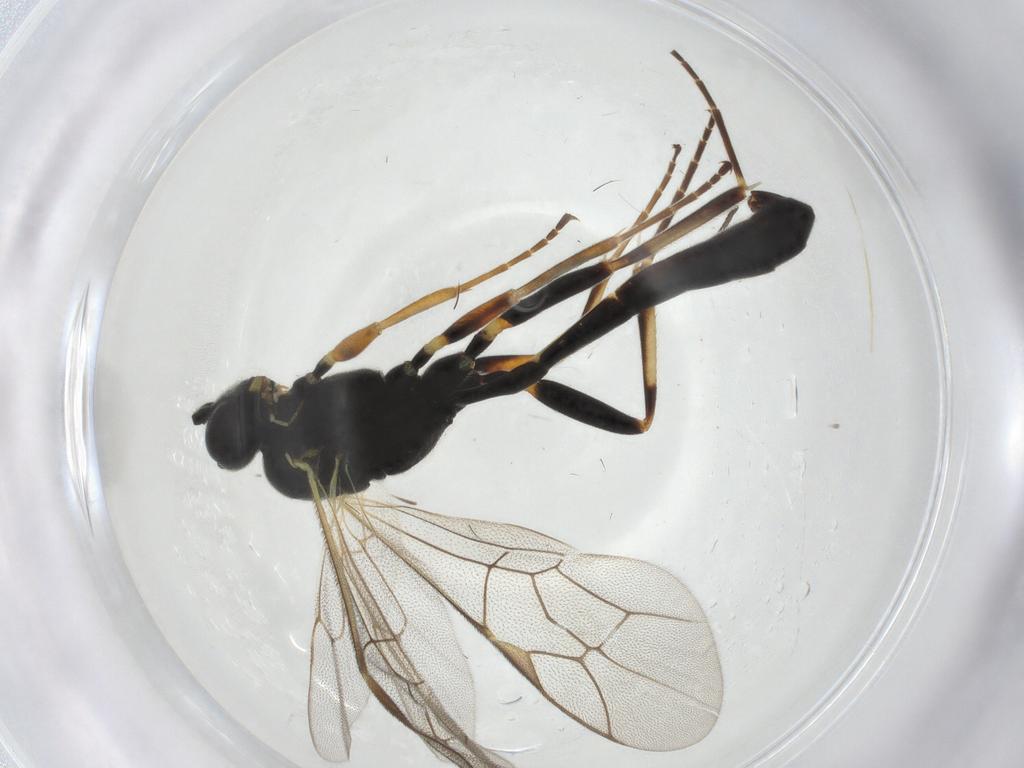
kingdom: Animalia
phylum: Arthropoda
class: Insecta
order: Hymenoptera
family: Ichneumonidae
